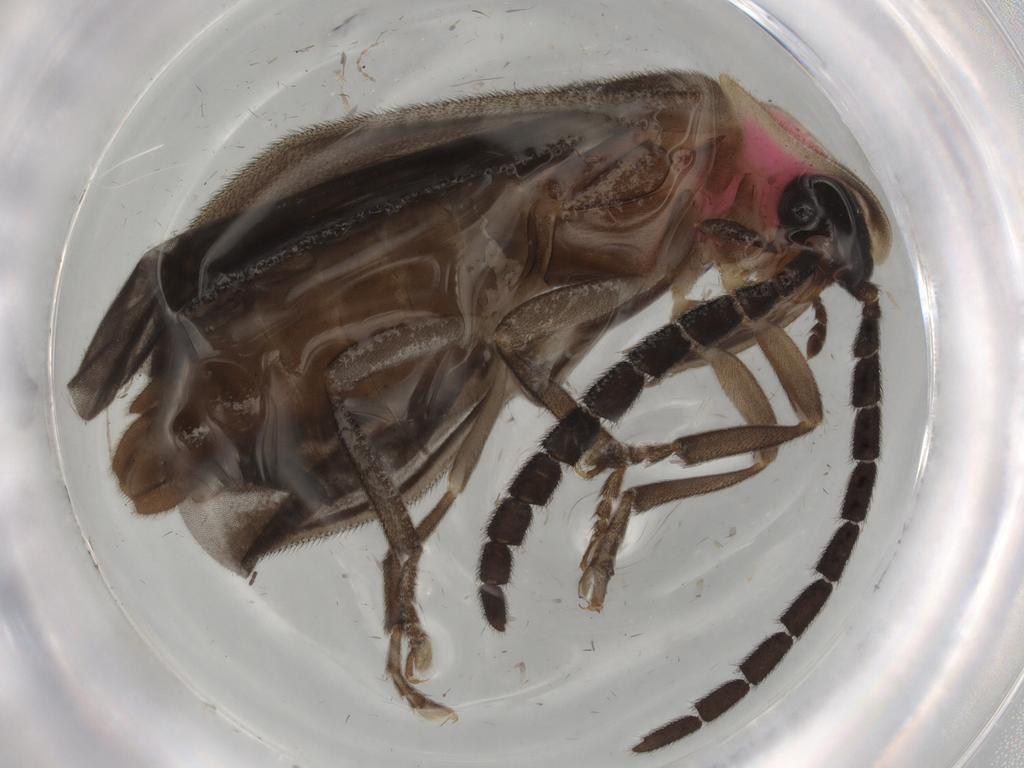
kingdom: Animalia
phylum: Arthropoda
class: Insecta
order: Coleoptera
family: Lampyridae
